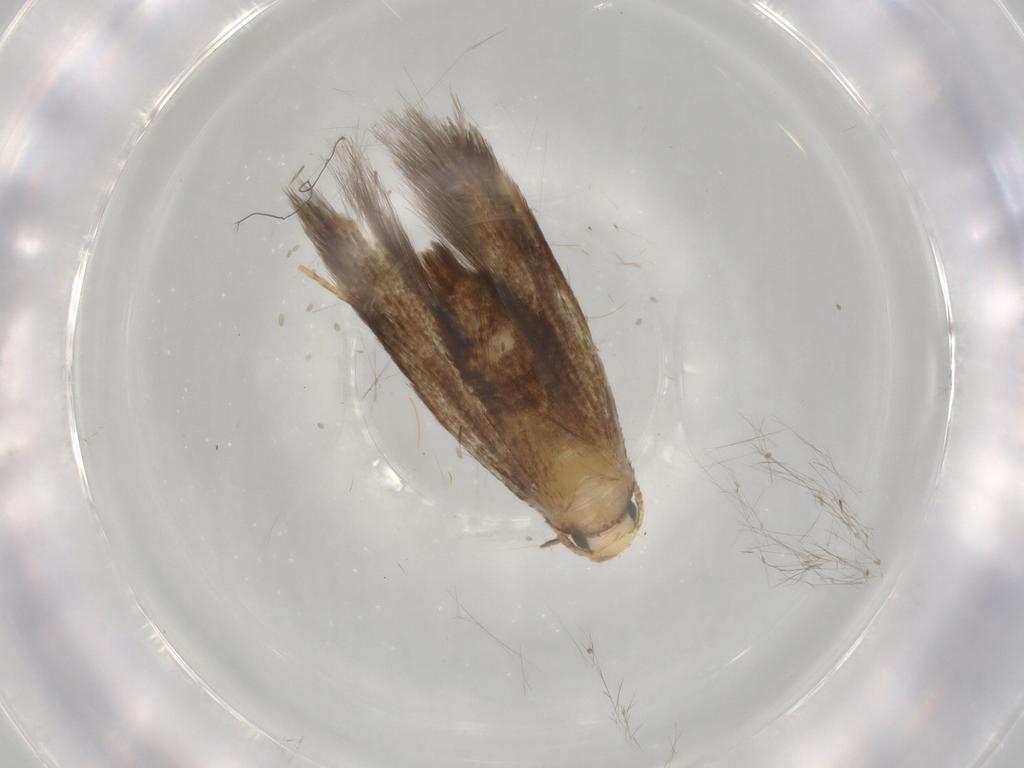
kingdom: Animalia
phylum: Arthropoda
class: Insecta
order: Lepidoptera
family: Tineidae
